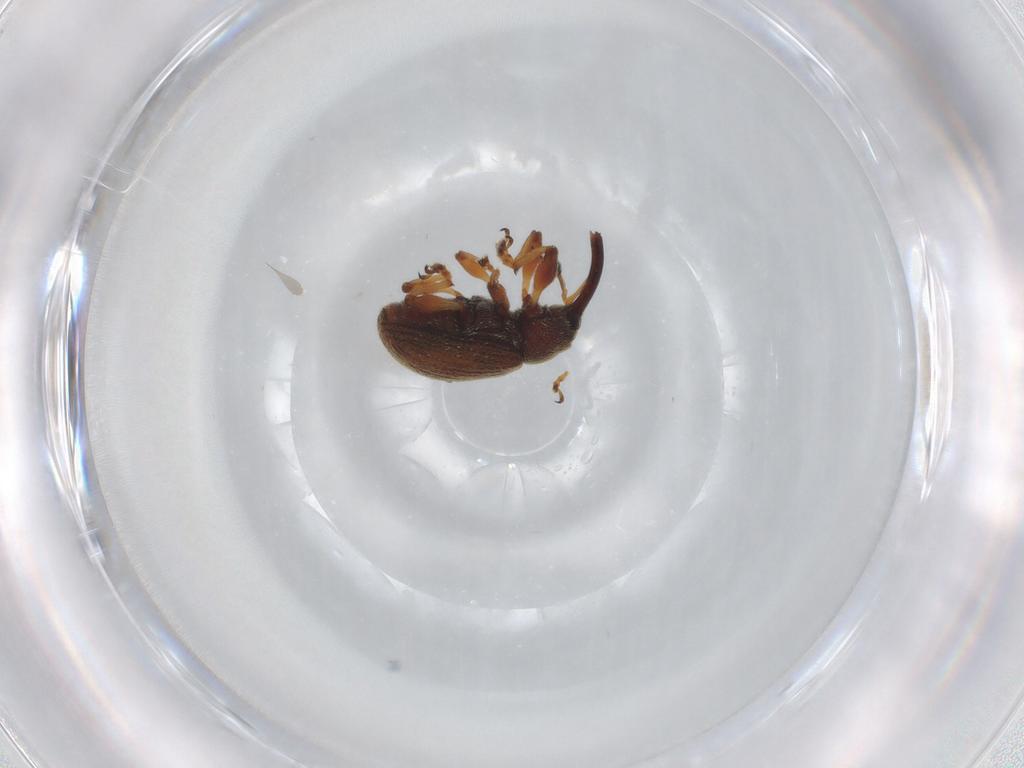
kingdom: Animalia
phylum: Arthropoda
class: Insecta
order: Coleoptera
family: Curculionidae
